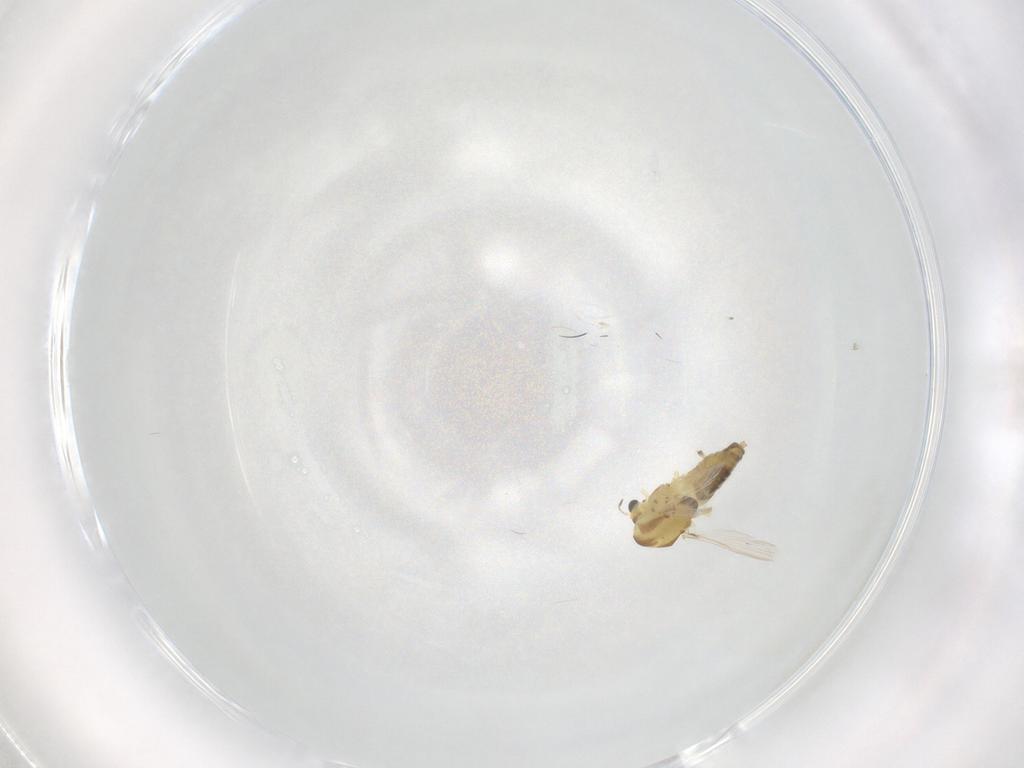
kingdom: Animalia
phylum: Arthropoda
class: Insecta
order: Diptera
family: Chironomidae
